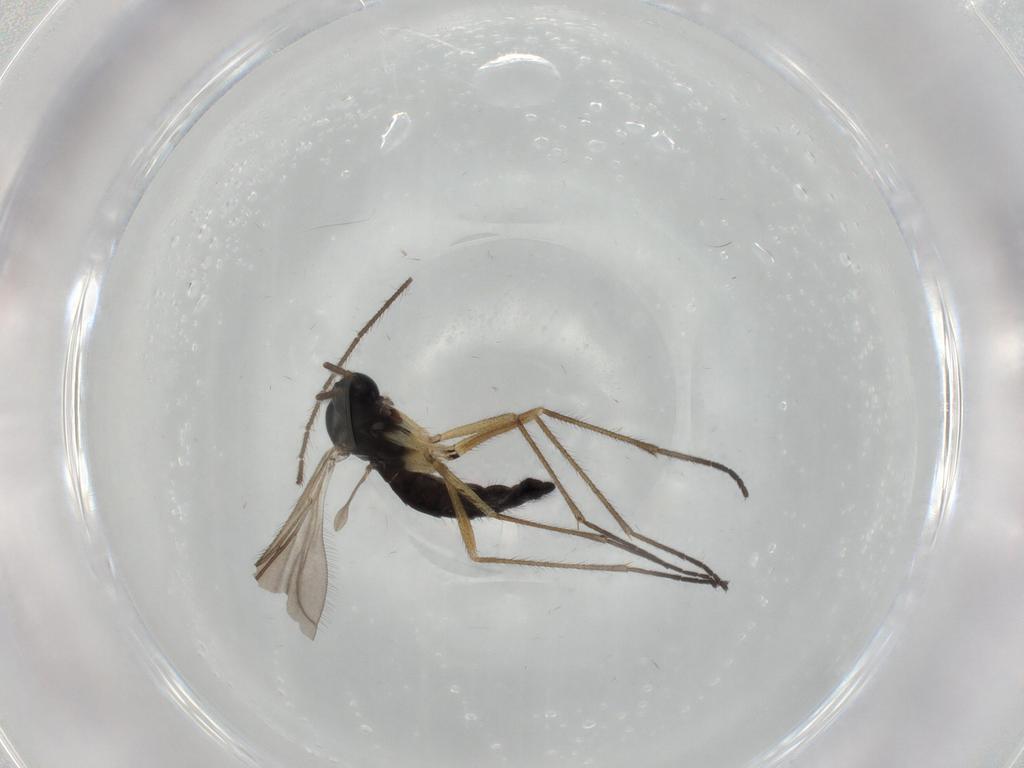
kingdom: Animalia
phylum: Arthropoda
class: Insecta
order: Diptera
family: Sciaridae
